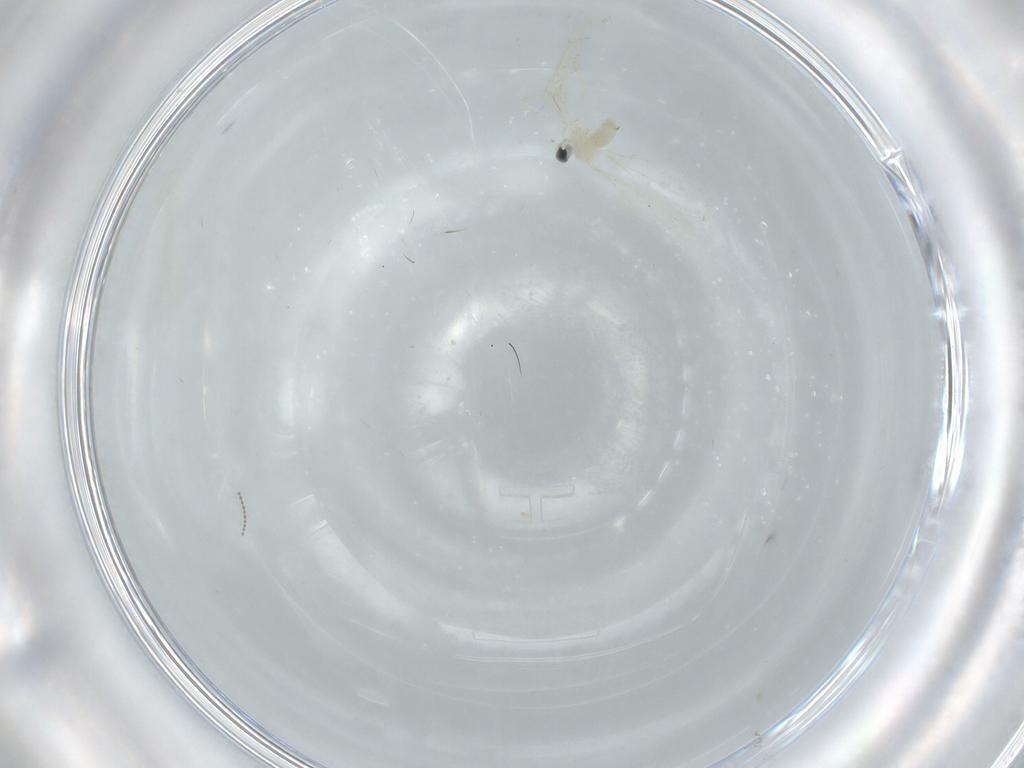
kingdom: Animalia
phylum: Arthropoda
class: Insecta
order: Diptera
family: Cecidomyiidae
